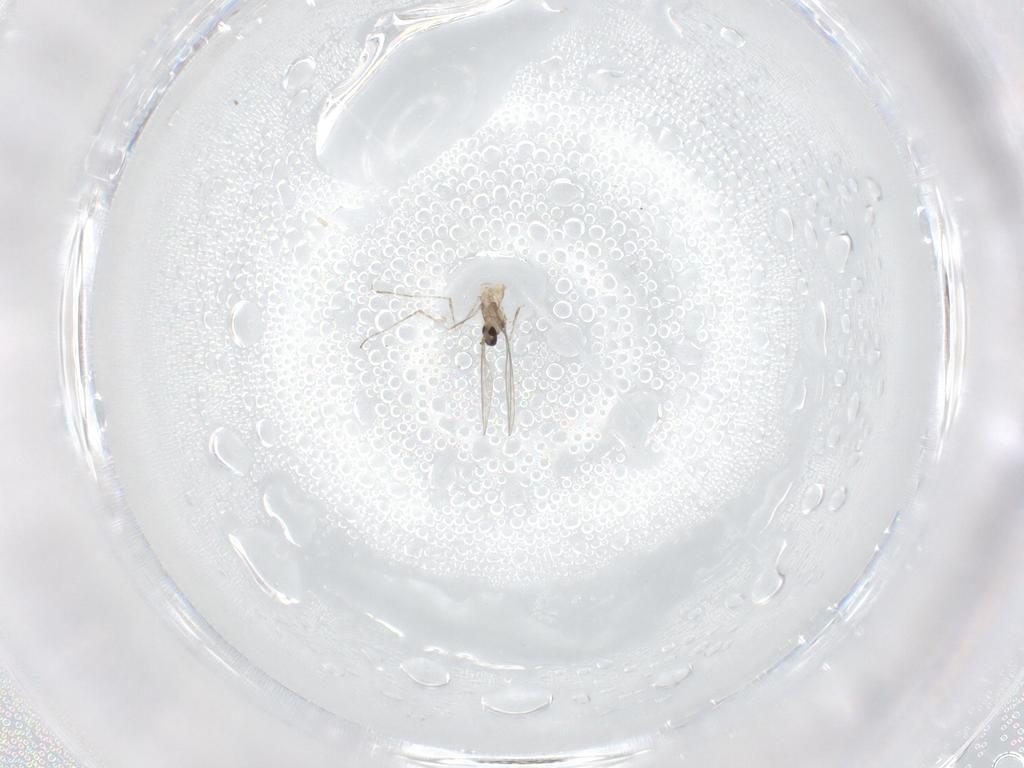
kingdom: Animalia
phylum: Arthropoda
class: Insecta
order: Diptera
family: Cecidomyiidae
